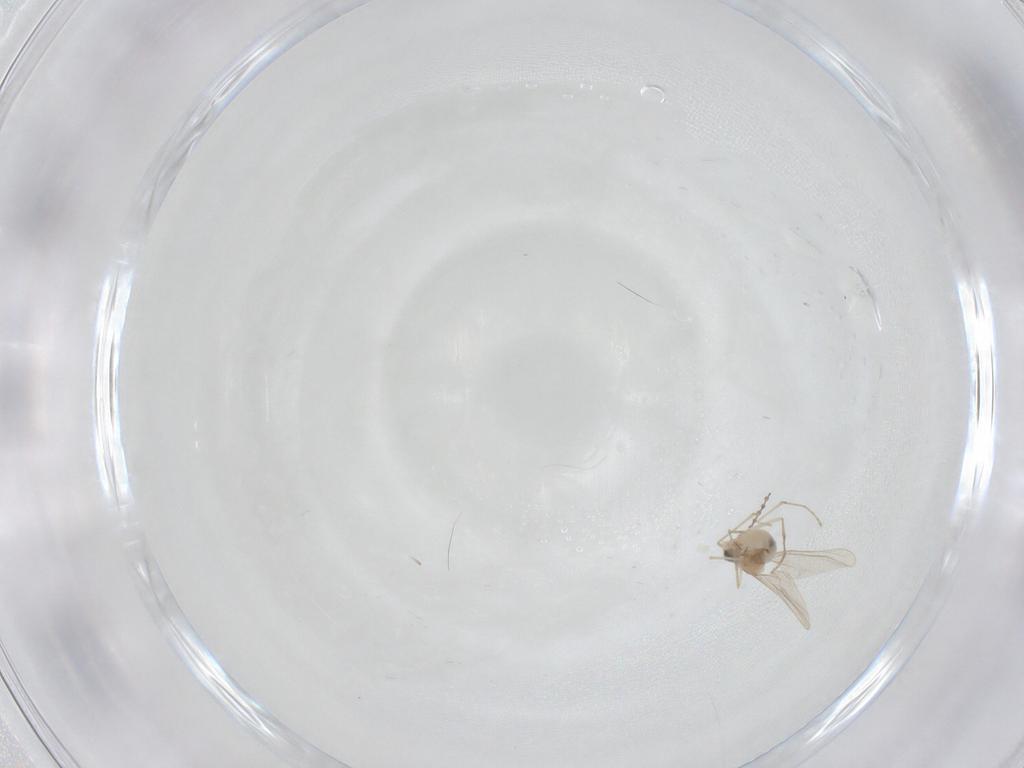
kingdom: Animalia
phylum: Arthropoda
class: Insecta
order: Diptera
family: Cecidomyiidae
